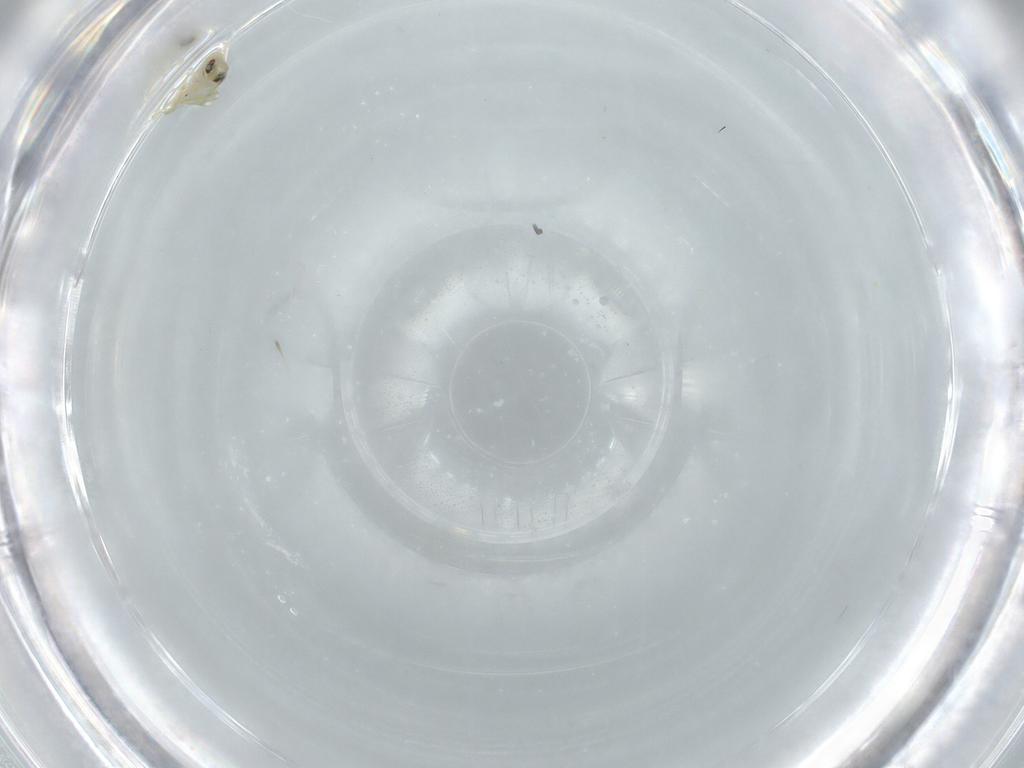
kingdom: Animalia
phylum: Arthropoda
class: Insecta
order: Hemiptera
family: Aleyrodidae
